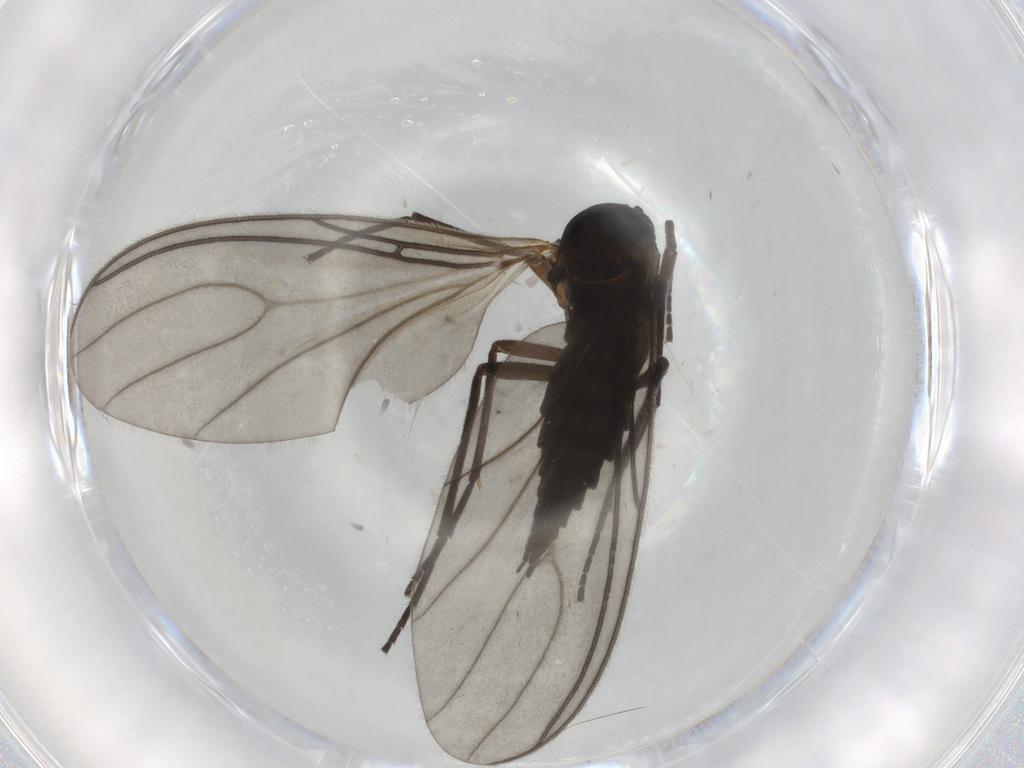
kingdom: Animalia
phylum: Arthropoda
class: Insecta
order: Diptera
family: Sciaridae
